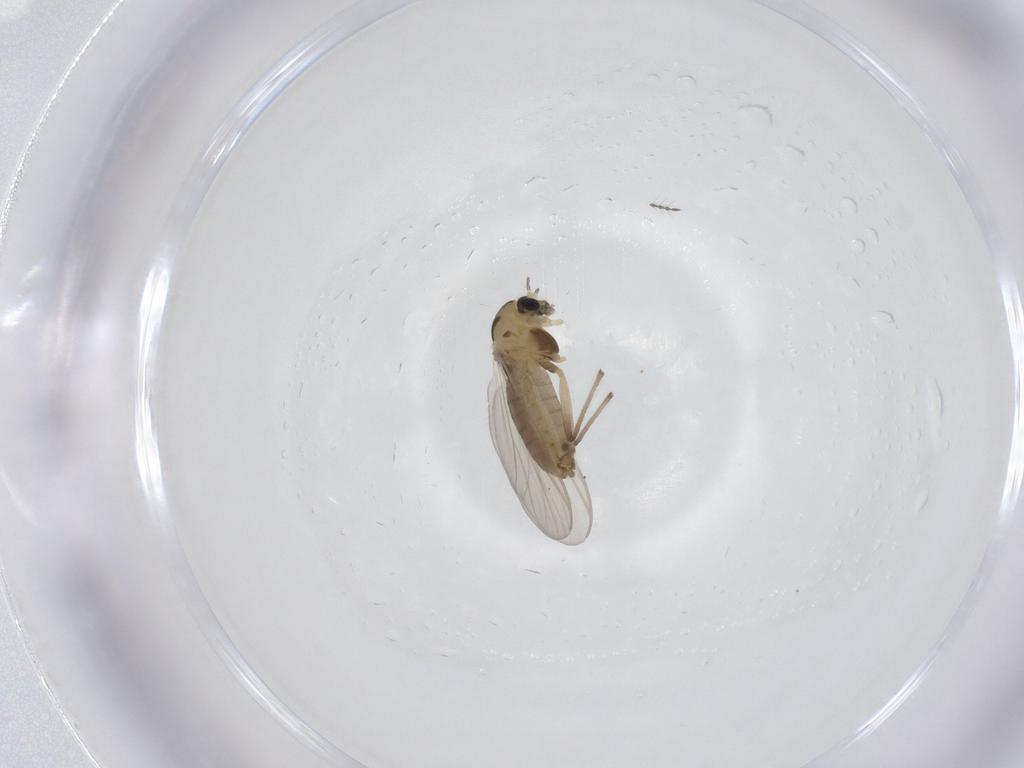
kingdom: Animalia
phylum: Arthropoda
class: Insecta
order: Diptera
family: Chironomidae
